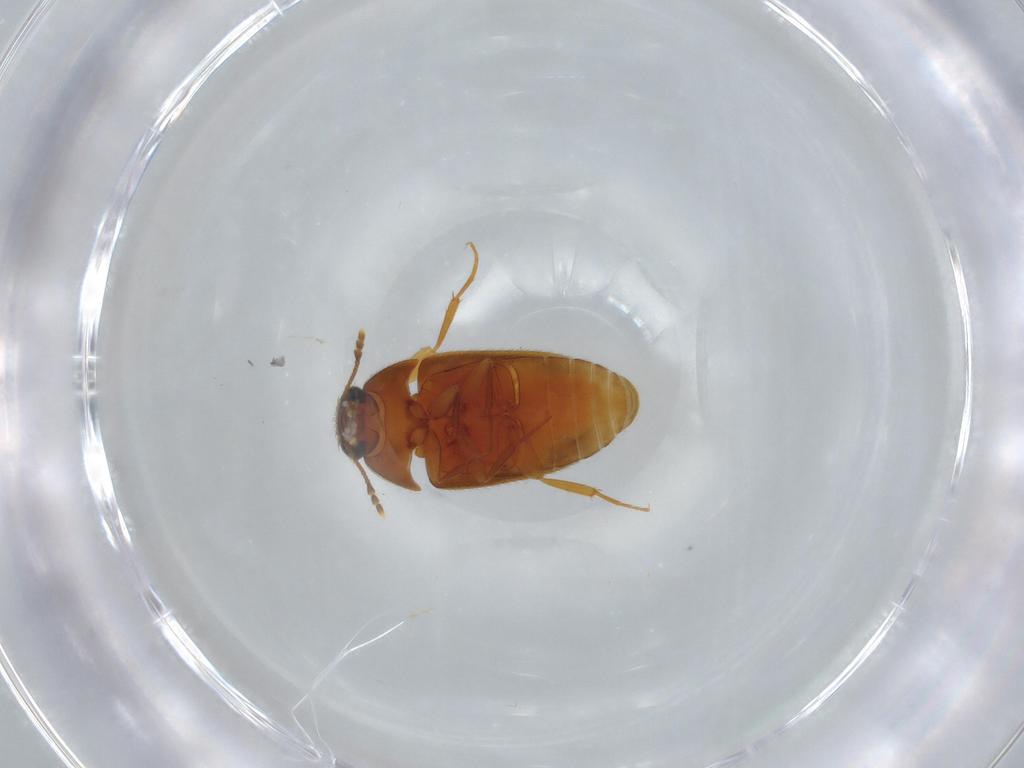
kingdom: Animalia
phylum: Arthropoda
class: Insecta
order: Coleoptera
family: Mycetophagidae
